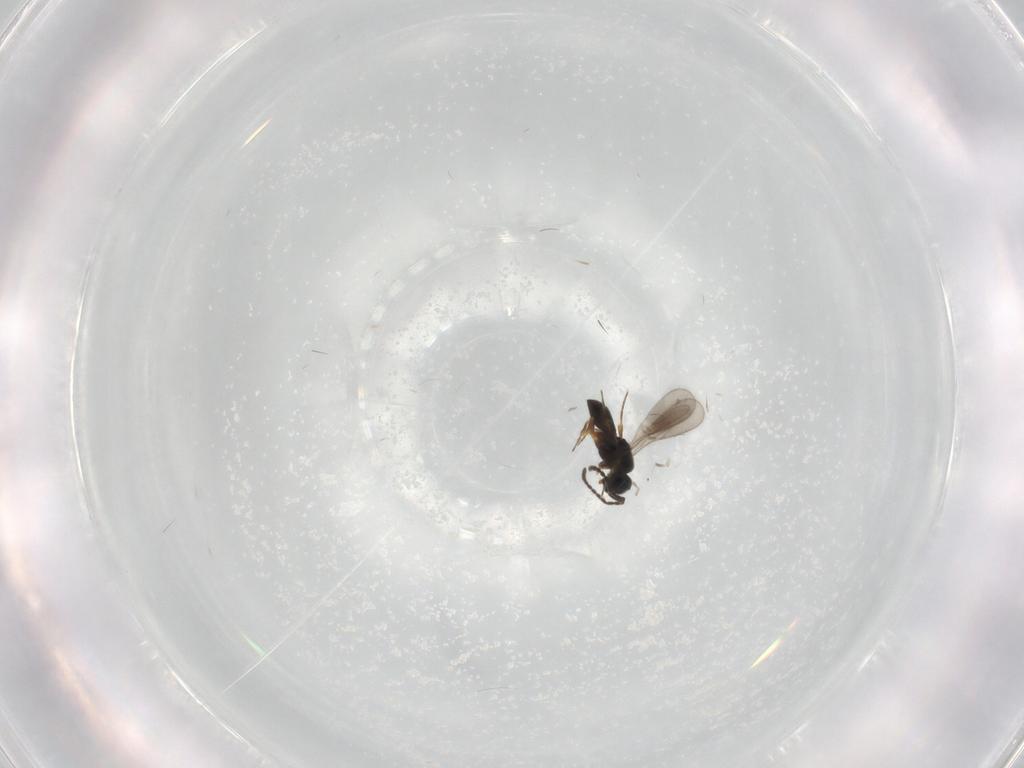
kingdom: Animalia
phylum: Arthropoda
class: Insecta
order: Hymenoptera
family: Scelionidae
